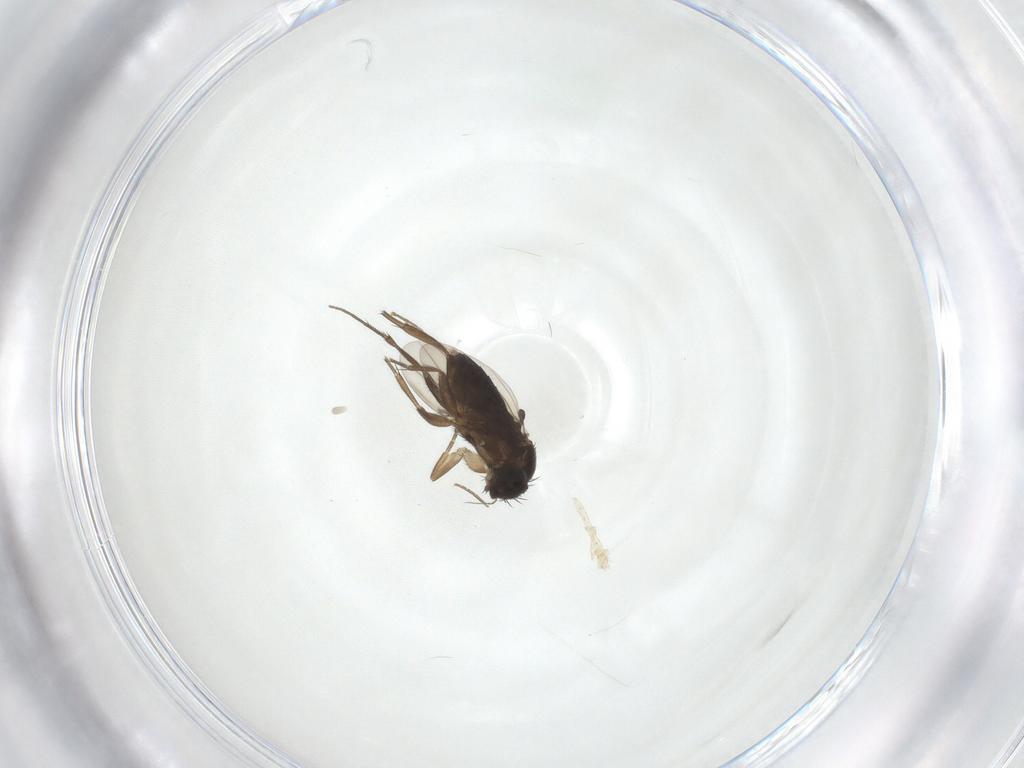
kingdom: Animalia
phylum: Arthropoda
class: Insecta
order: Diptera
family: Phoridae
